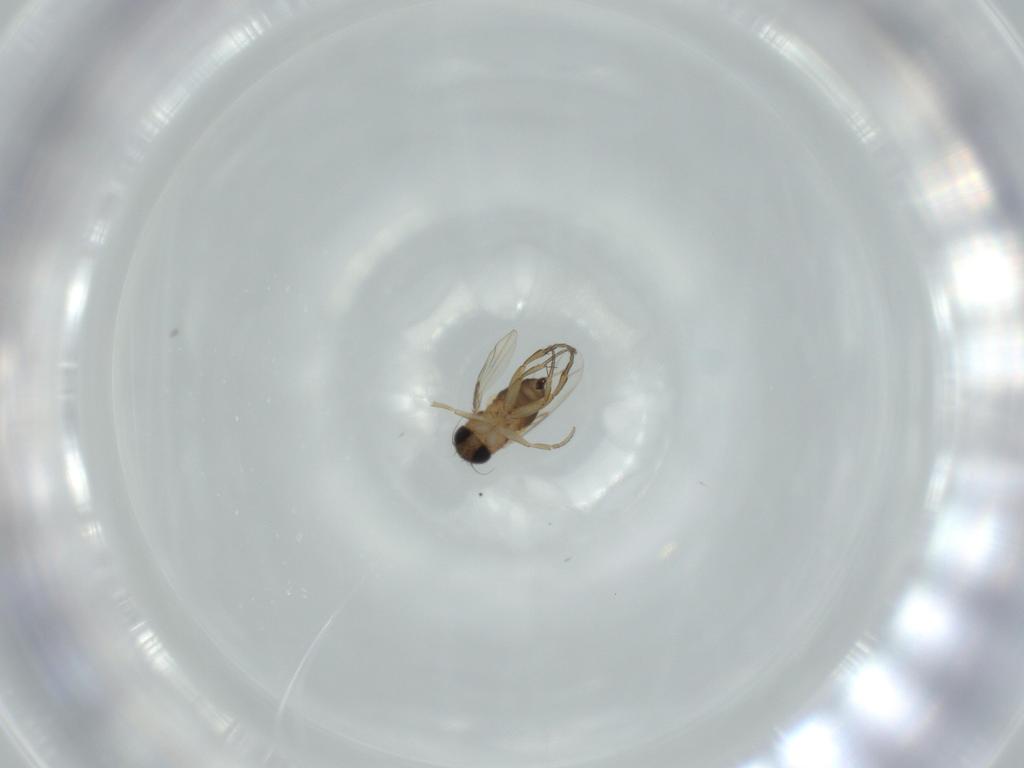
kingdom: Animalia
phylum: Arthropoda
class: Insecta
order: Diptera
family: Phoridae
